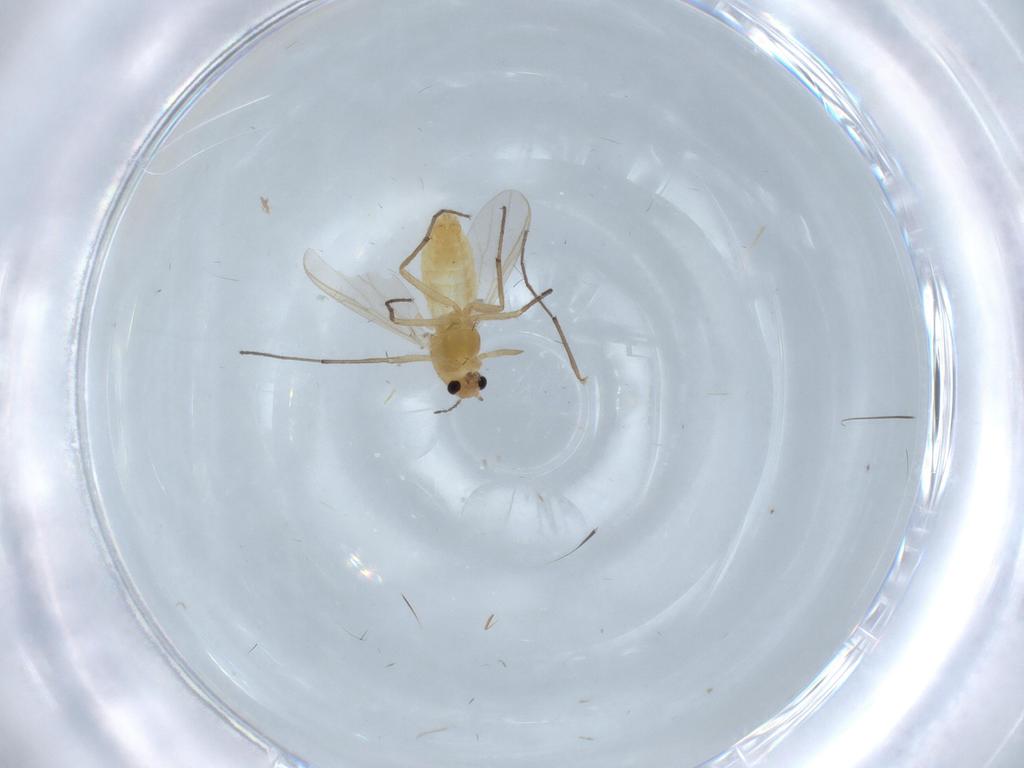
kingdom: Animalia
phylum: Arthropoda
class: Insecta
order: Diptera
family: Chironomidae
